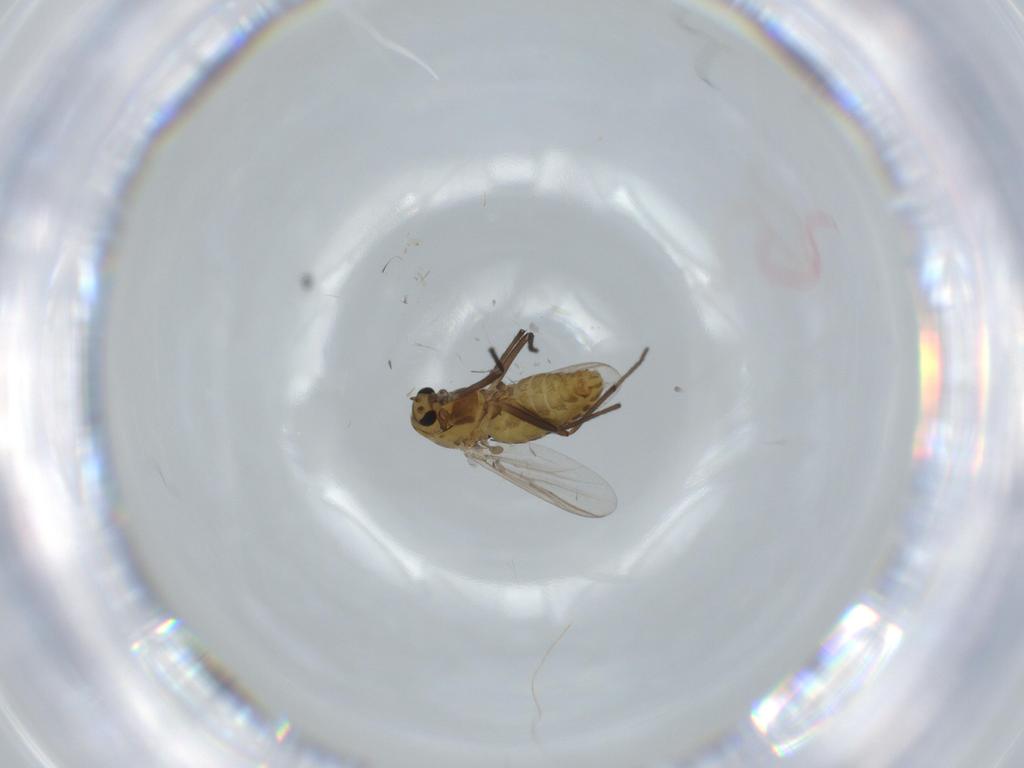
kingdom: Animalia
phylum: Arthropoda
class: Insecta
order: Diptera
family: Chironomidae
